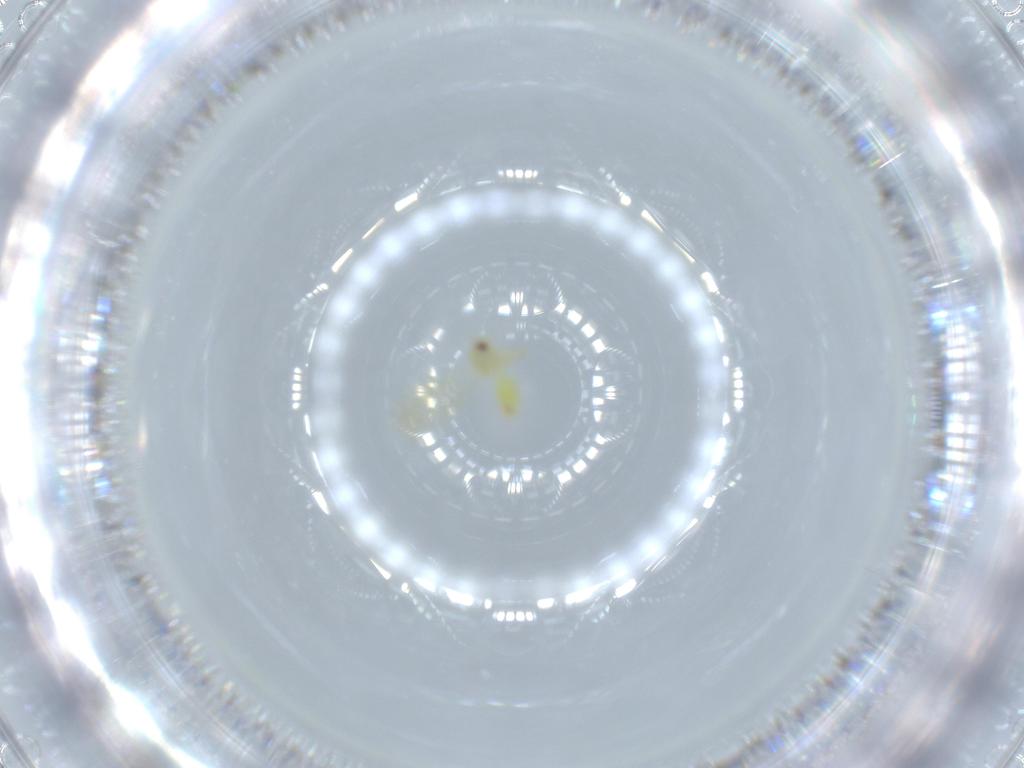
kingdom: Animalia
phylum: Arthropoda
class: Insecta
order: Hemiptera
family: Aleyrodidae
